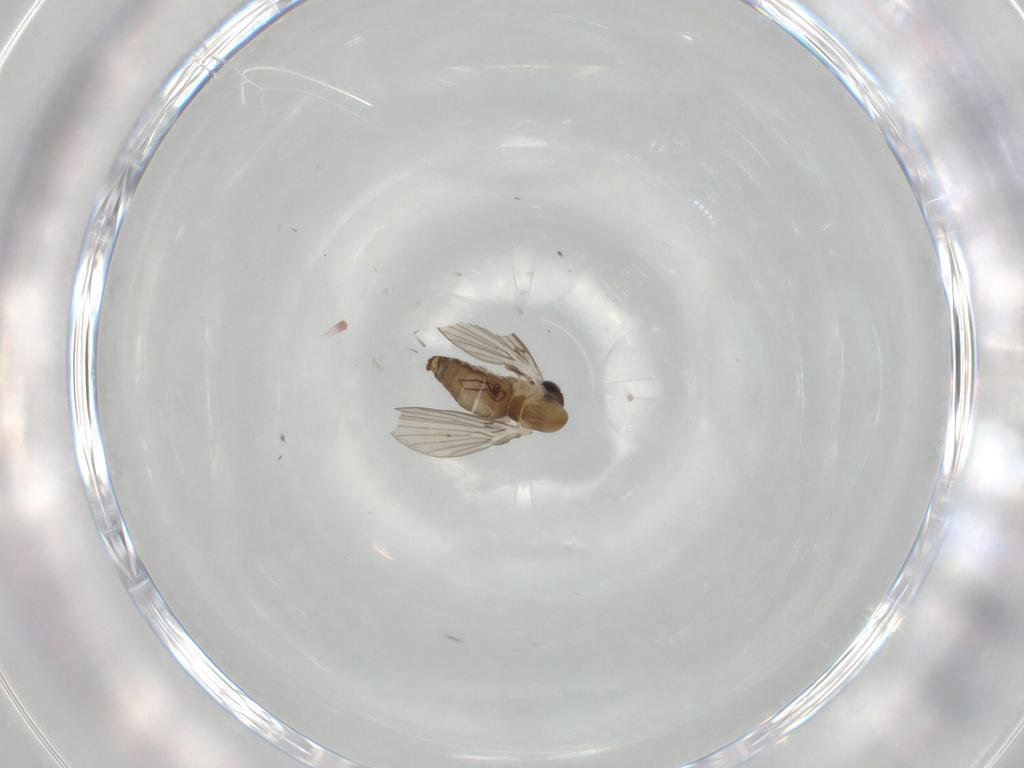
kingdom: Animalia
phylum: Arthropoda
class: Insecta
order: Diptera
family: Psychodidae
